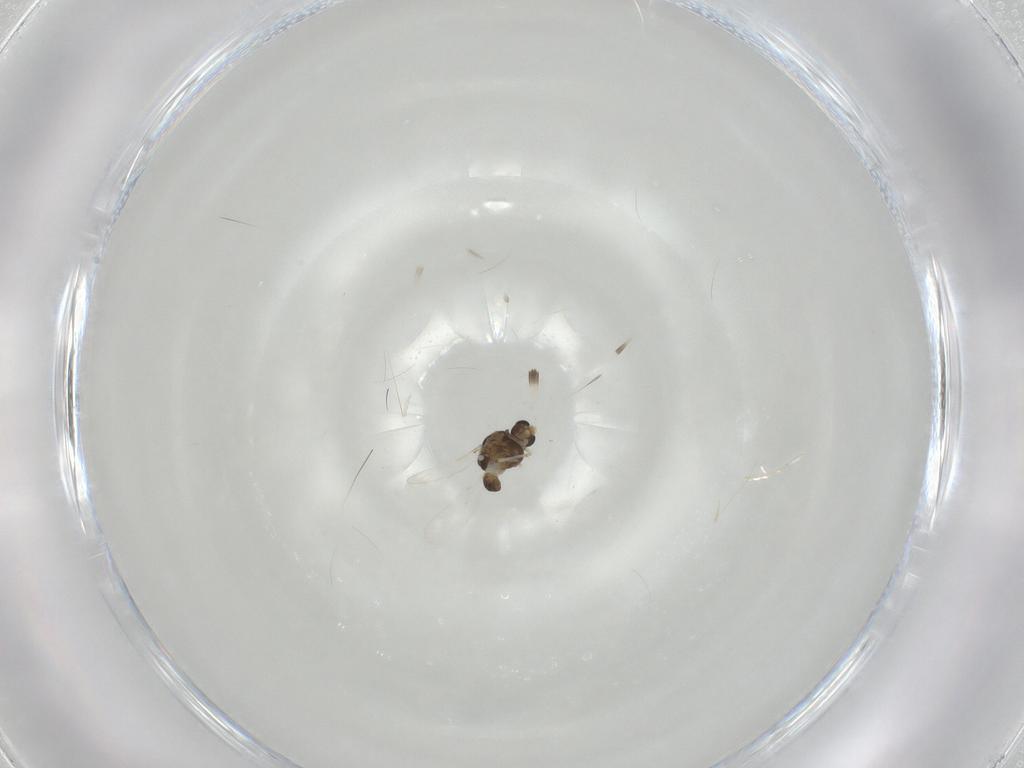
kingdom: Animalia
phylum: Arthropoda
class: Insecta
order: Diptera
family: Chironomidae
